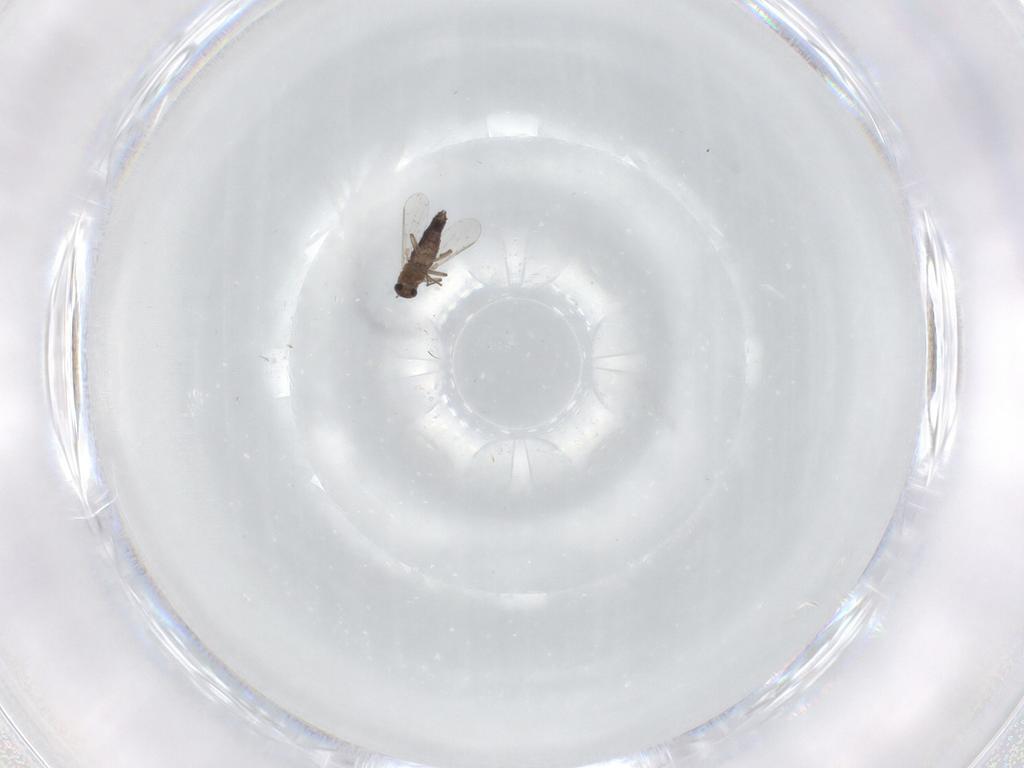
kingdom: Animalia
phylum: Arthropoda
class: Insecta
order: Diptera
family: Chironomidae
